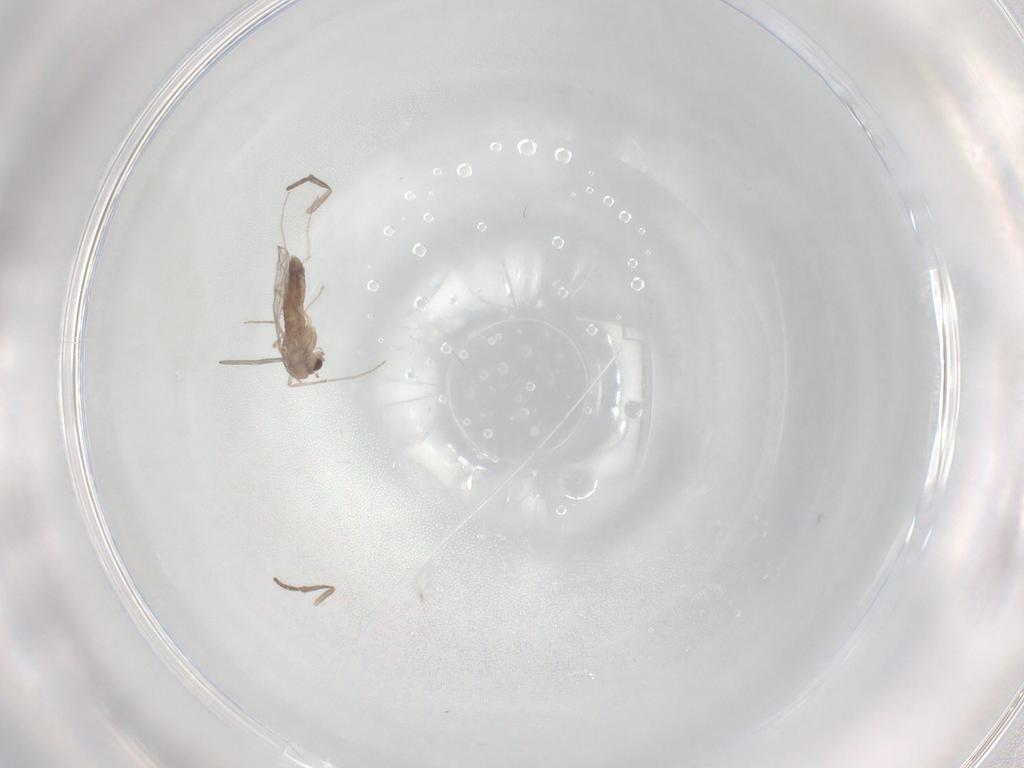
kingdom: Animalia
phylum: Arthropoda
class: Insecta
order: Diptera
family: Chironomidae
